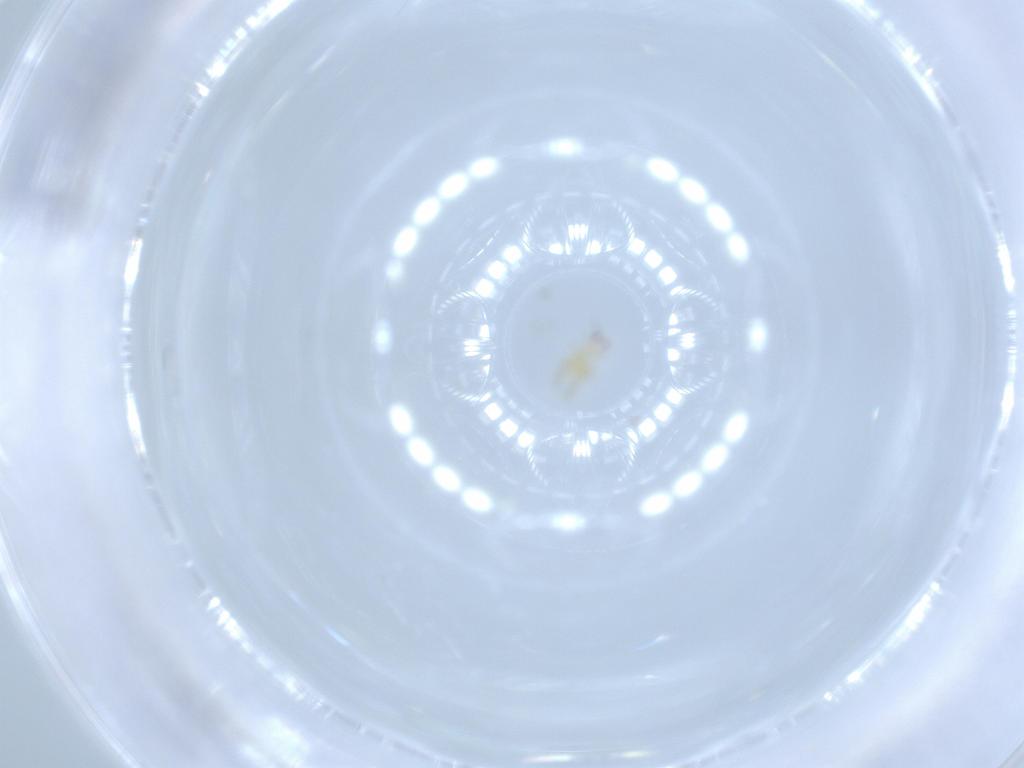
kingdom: Animalia
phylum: Arthropoda
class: Insecta
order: Thysanoptera
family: Thripidae
